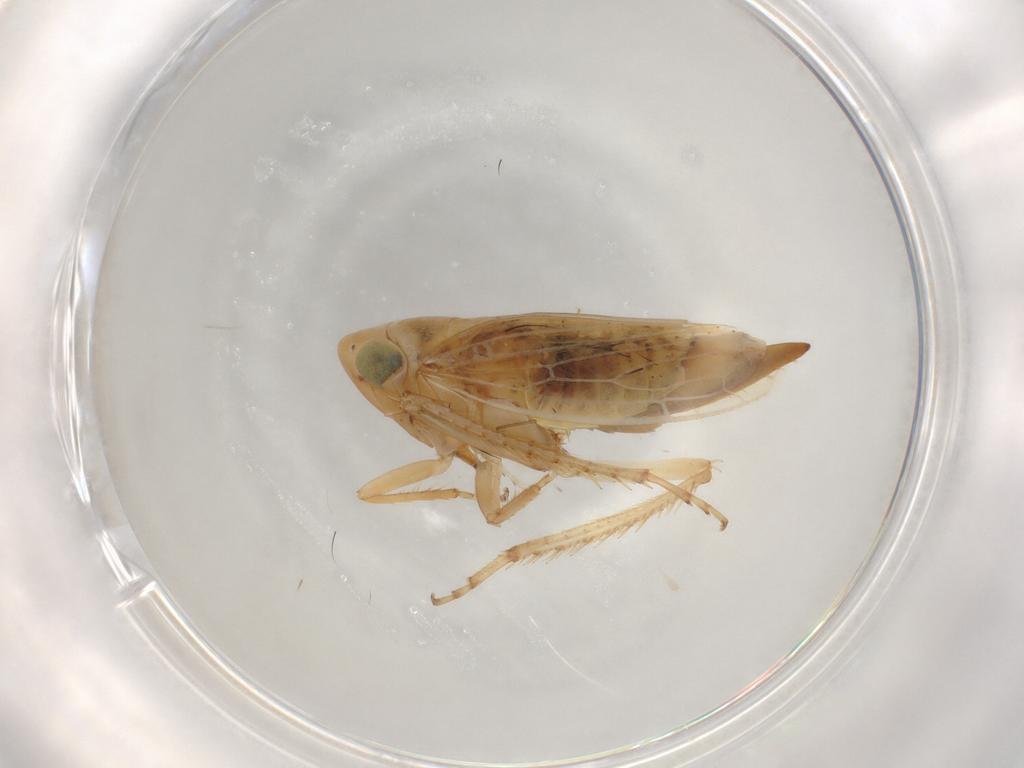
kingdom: Animalia
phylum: Arthropoda
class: Insecta
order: Hemiptera
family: Cicadellidae
